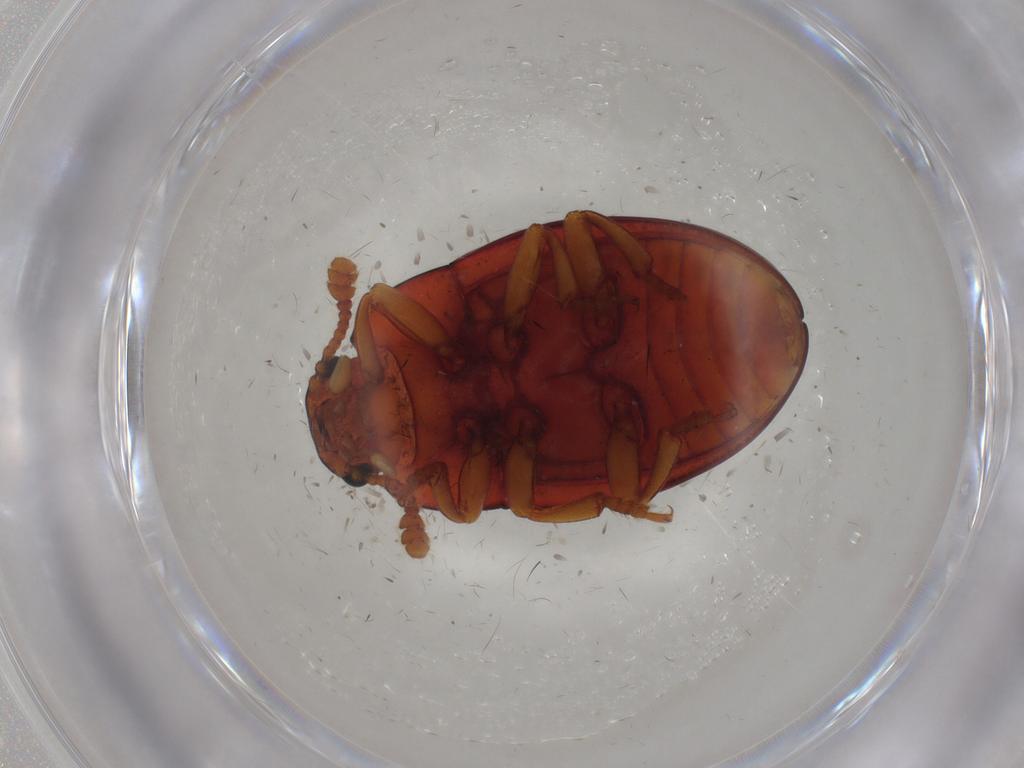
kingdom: Animalia
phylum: Arthropoda
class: Insecta
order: Coleoptera
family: Erotylidae
